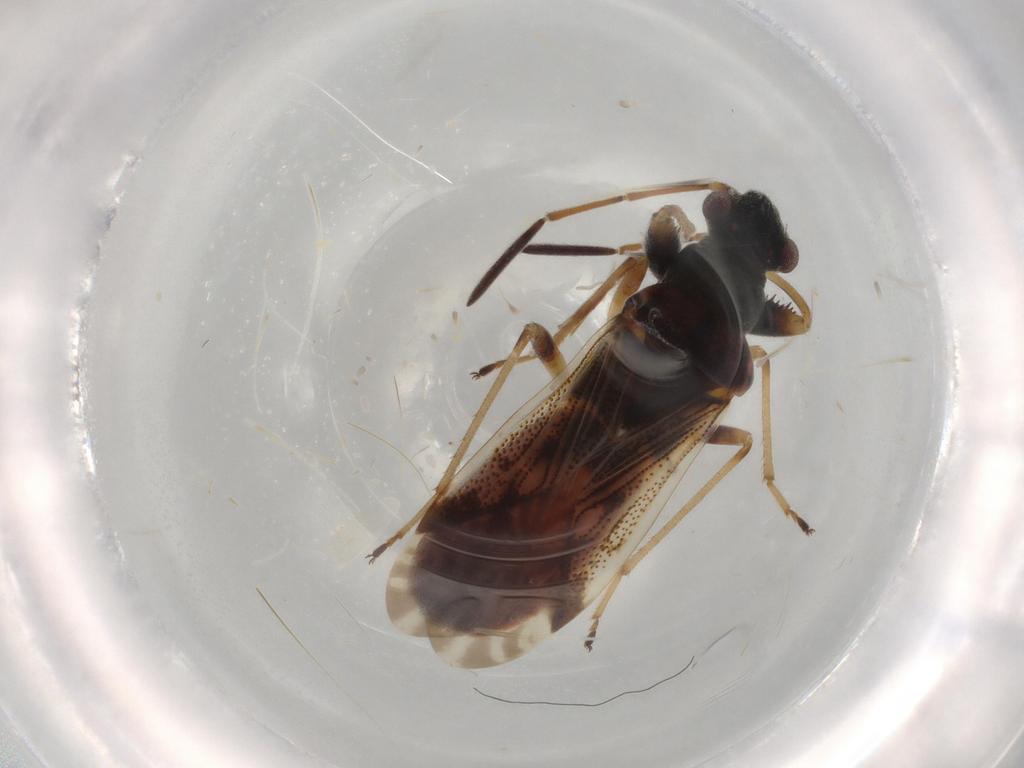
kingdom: Animalia
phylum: Arthropoda
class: Insecta
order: Hemiptera
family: Rhyparochromidae
